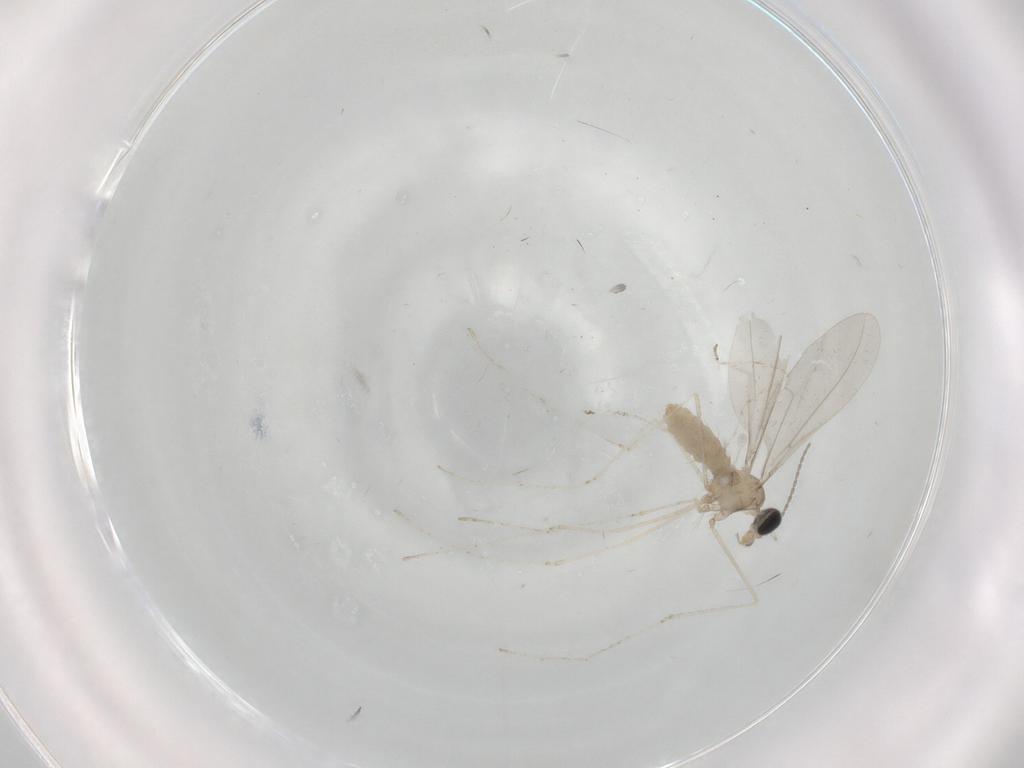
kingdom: Animalia
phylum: Arthropoda
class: Insecta
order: Diptera
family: Cecidomyiidae
